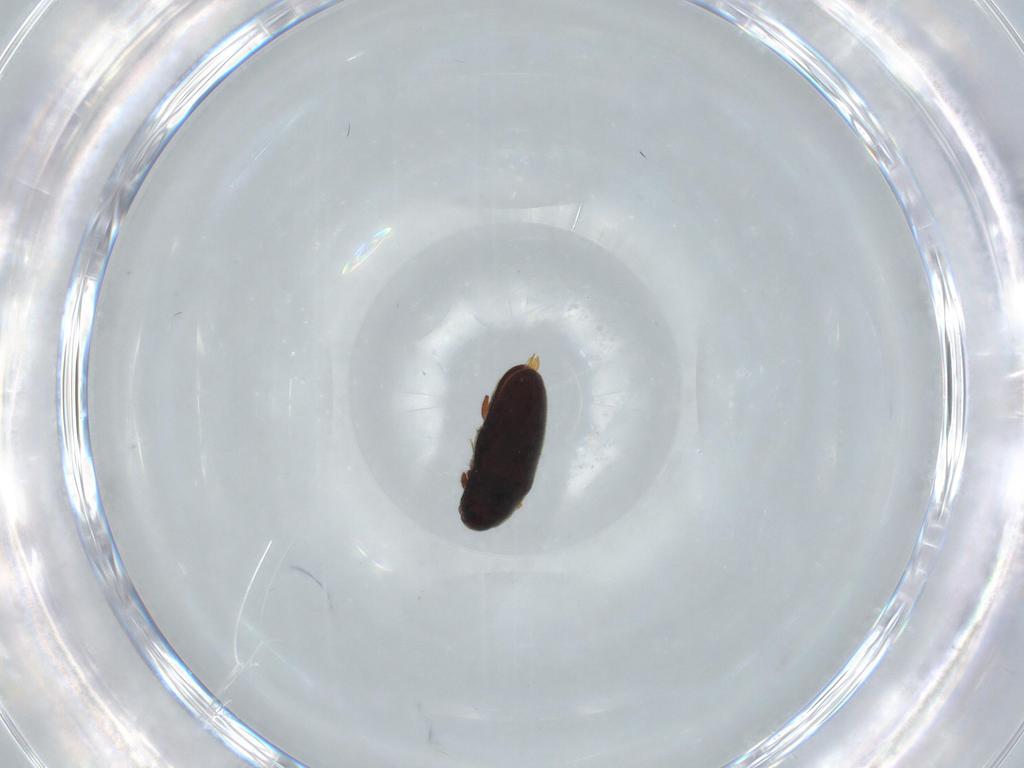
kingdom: Animalia
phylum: Arthropoda
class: Insecta
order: Coleoptera
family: Throscidae
